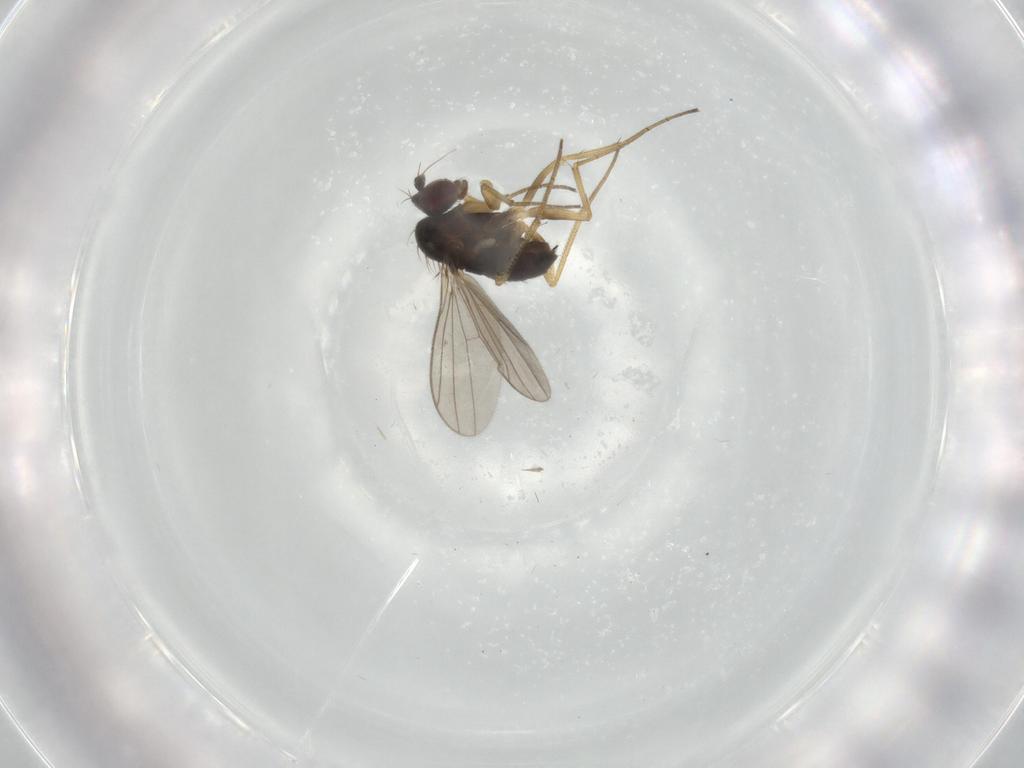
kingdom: Animalia
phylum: Arthropoda
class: Insecta
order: Diptera
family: Dolichopodidae
